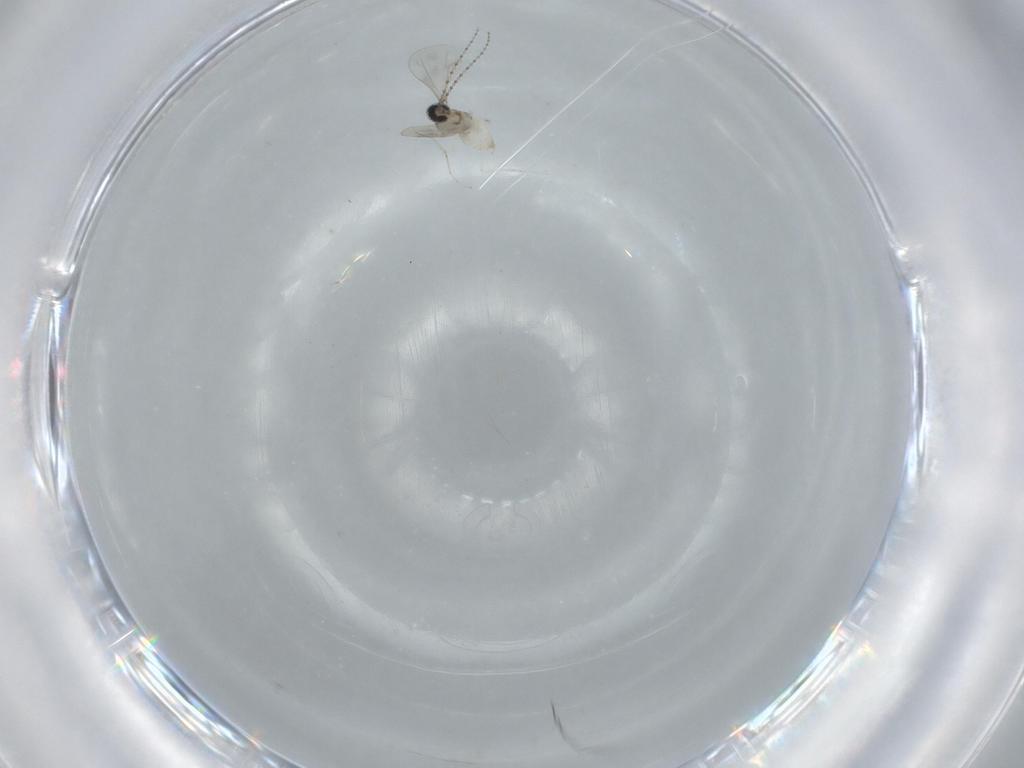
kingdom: Animalia
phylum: Arthropoda
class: Insecta
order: Diptera
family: Cecidomyiidae
